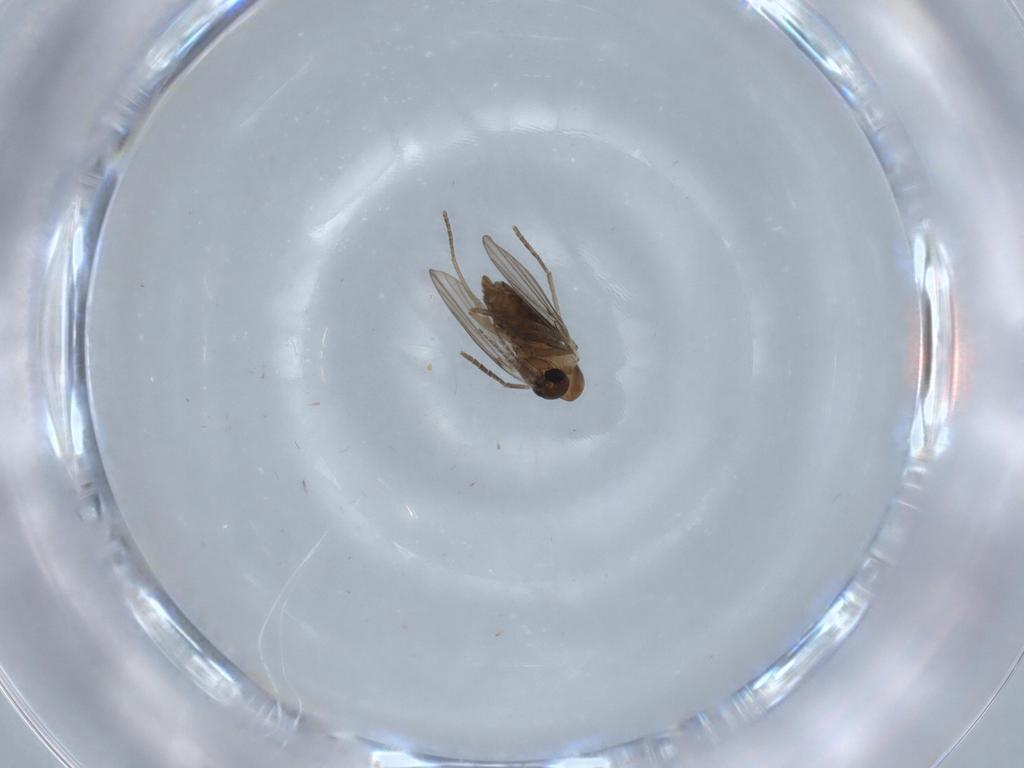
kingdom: Animalia
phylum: Arthropoda
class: Insecta
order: Diptera
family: Psychodidae
